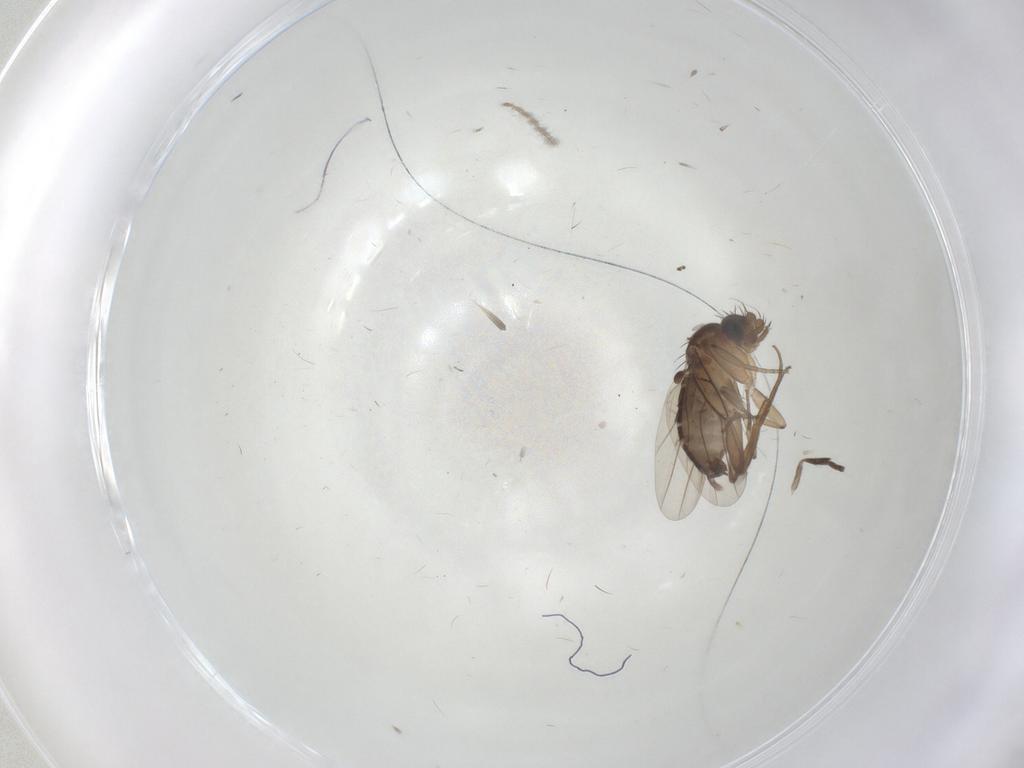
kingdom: Animalia
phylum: Arthropoda
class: Insecta
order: Diptera
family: Phoridae
